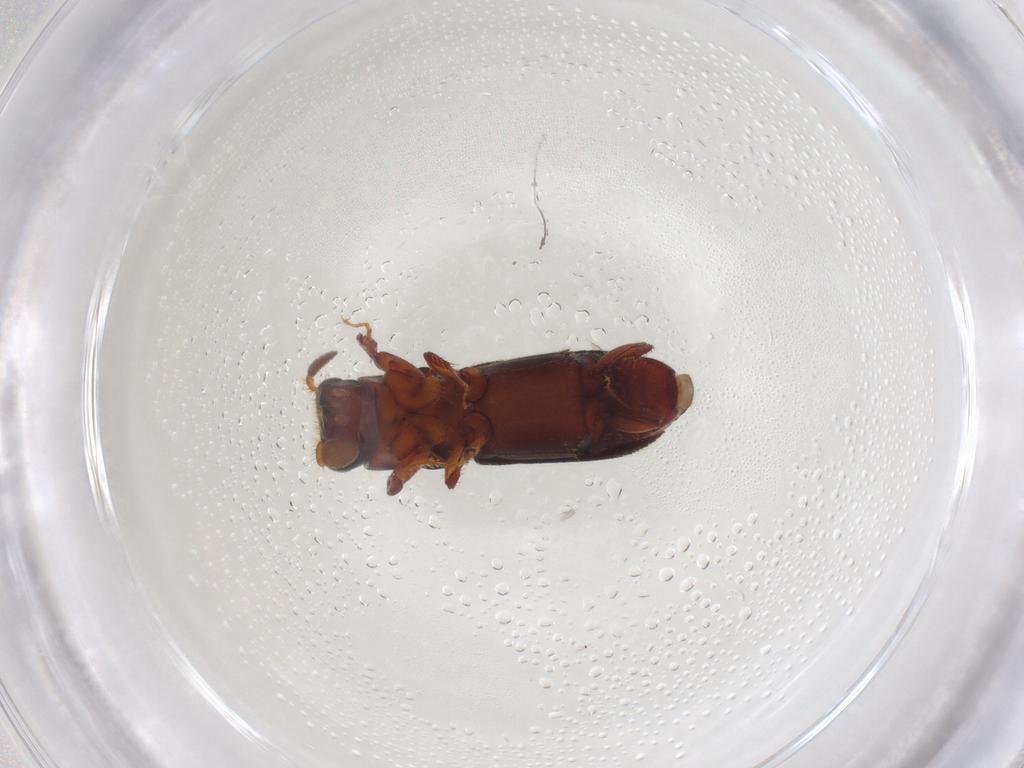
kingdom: Animalia
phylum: Arthropoda
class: Insecta
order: Coleoptera
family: Curculionidae
